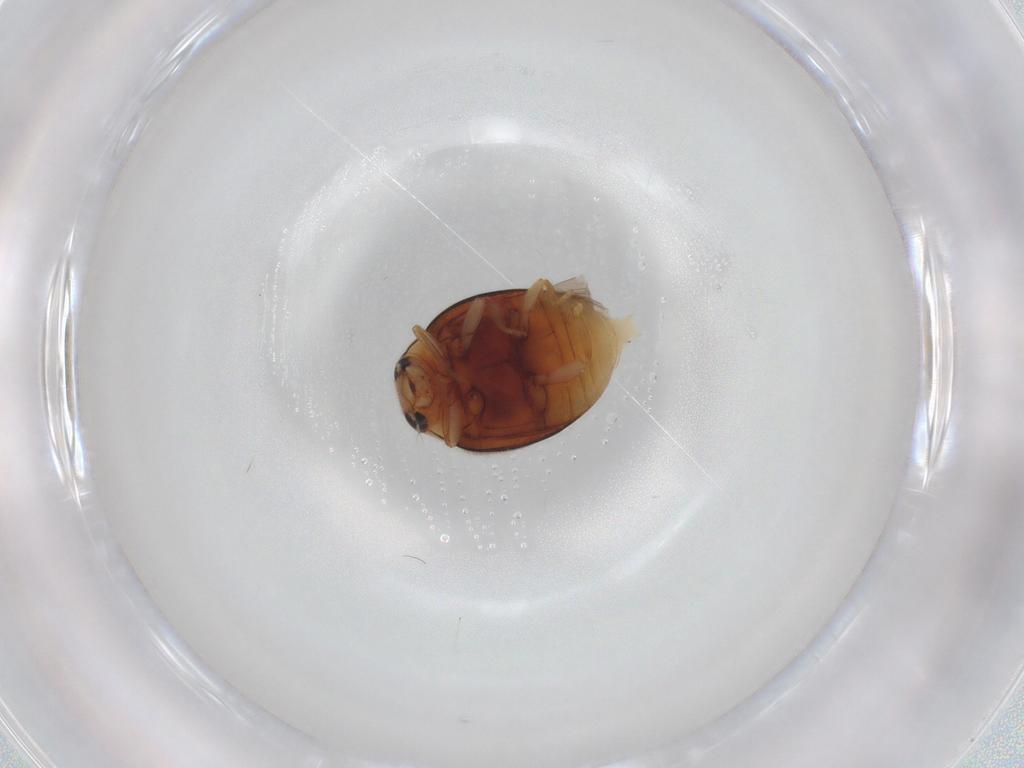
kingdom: Animalia
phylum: Arthropoda
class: Insecta
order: Coleoptera
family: Coccinellidae
